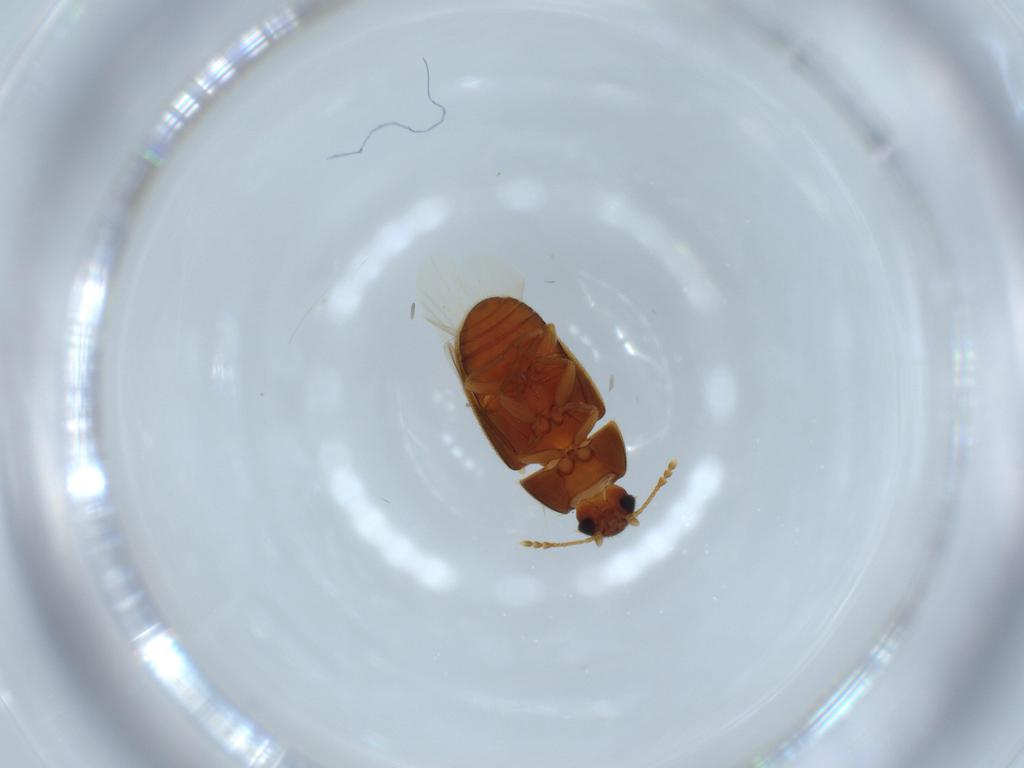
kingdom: Animalia
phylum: Arthropoda
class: Insecta
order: Coleoptera
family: Mycetophagidae
